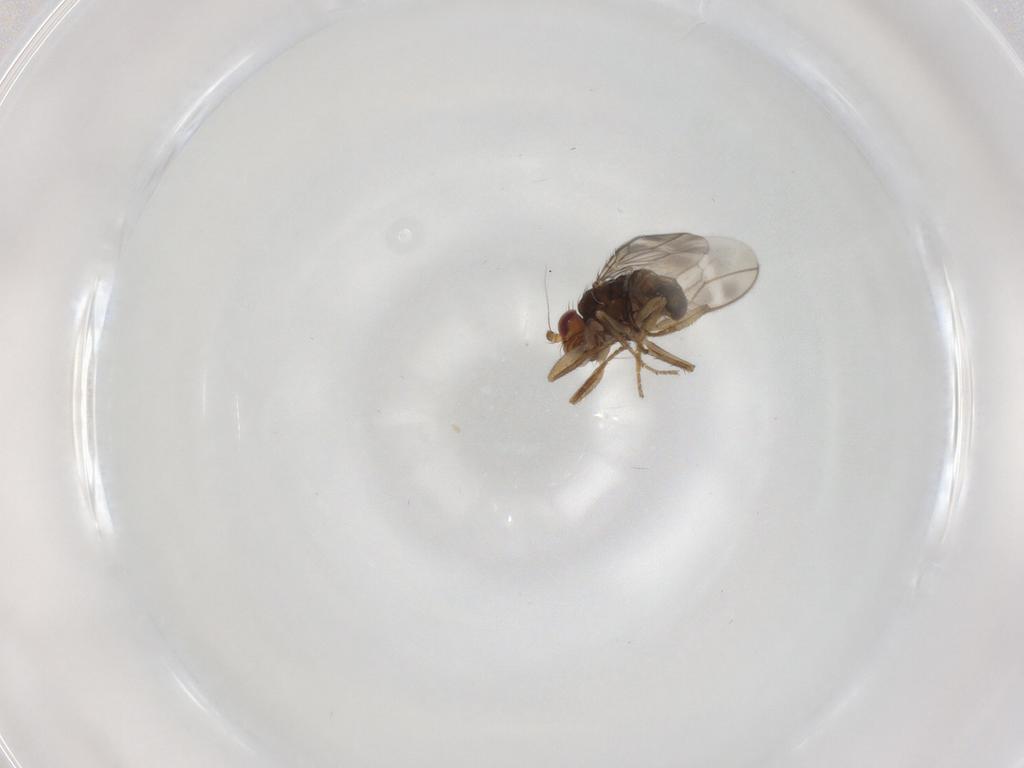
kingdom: Animalia
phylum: Arthropoda
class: Insecta
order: Diptera
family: Sphaeroceridae
